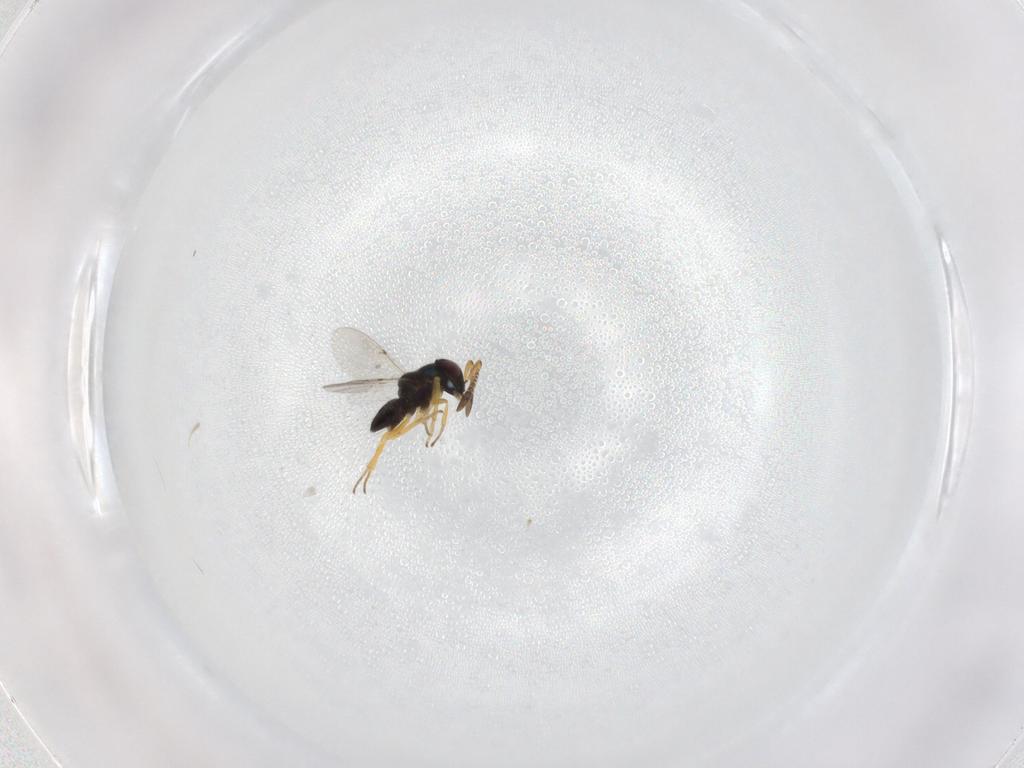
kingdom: Animalia
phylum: Arthropoda
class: Insecta
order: Hymenoptera
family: Encyrtidae
